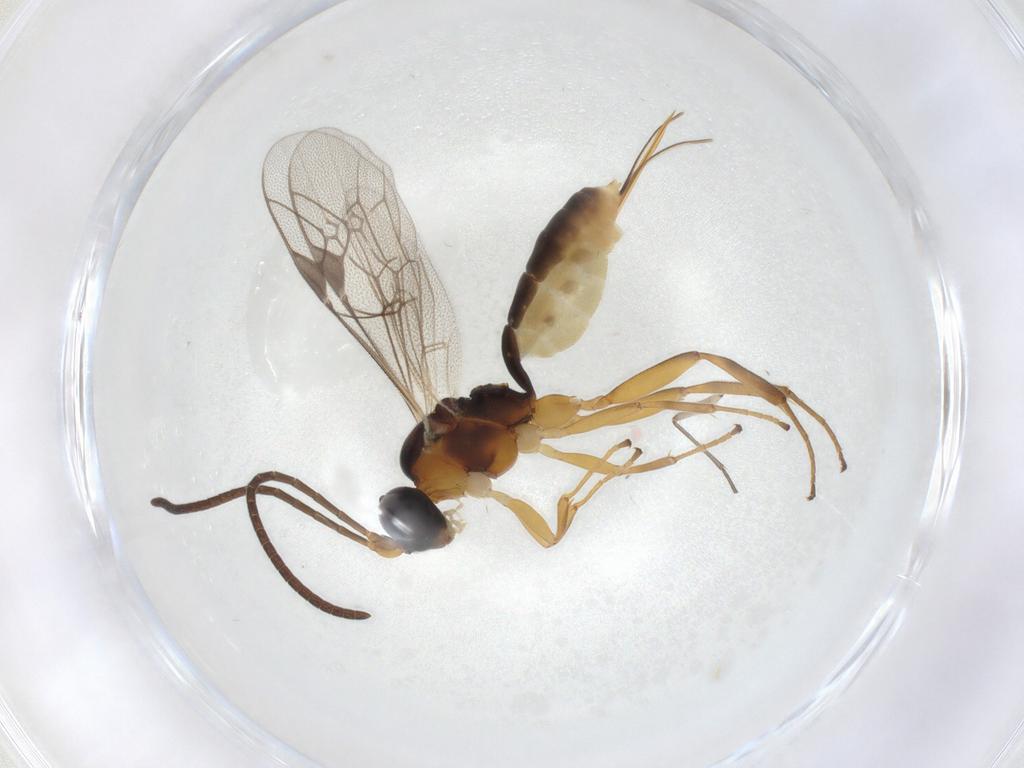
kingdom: Animalia
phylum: Arthropoda
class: Insecta
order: Hymenoptera
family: Ichneumonidae
